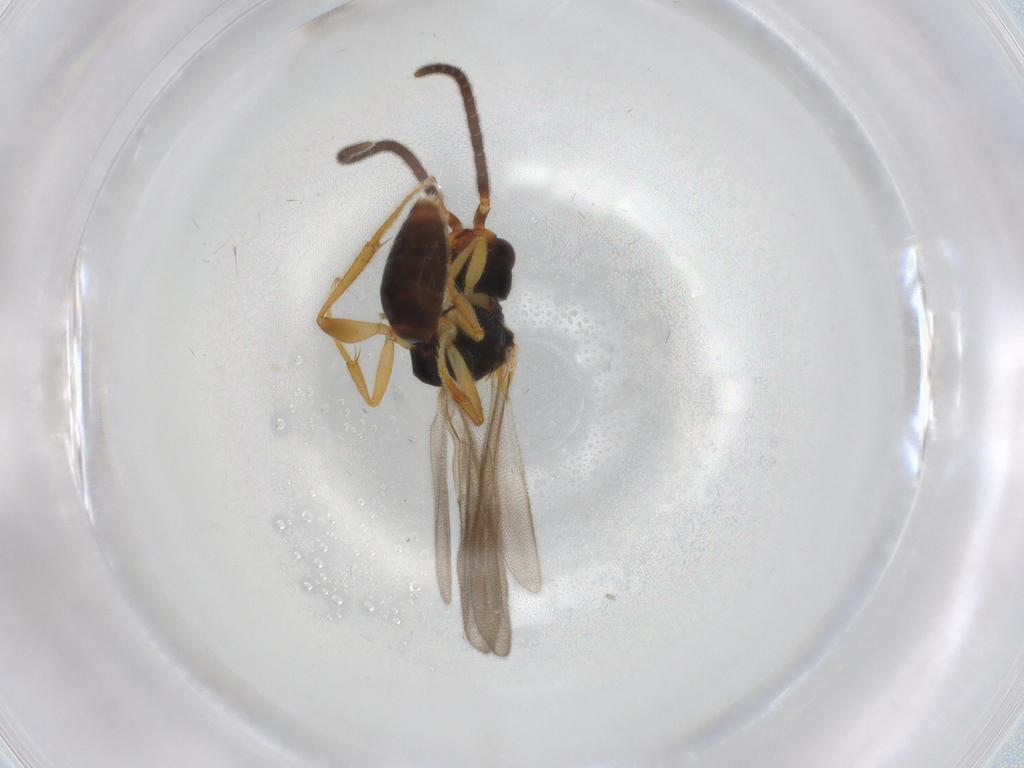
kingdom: Animalia
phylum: Arthropoda
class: Insecta
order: Hymenoptera
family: Bethylidae
